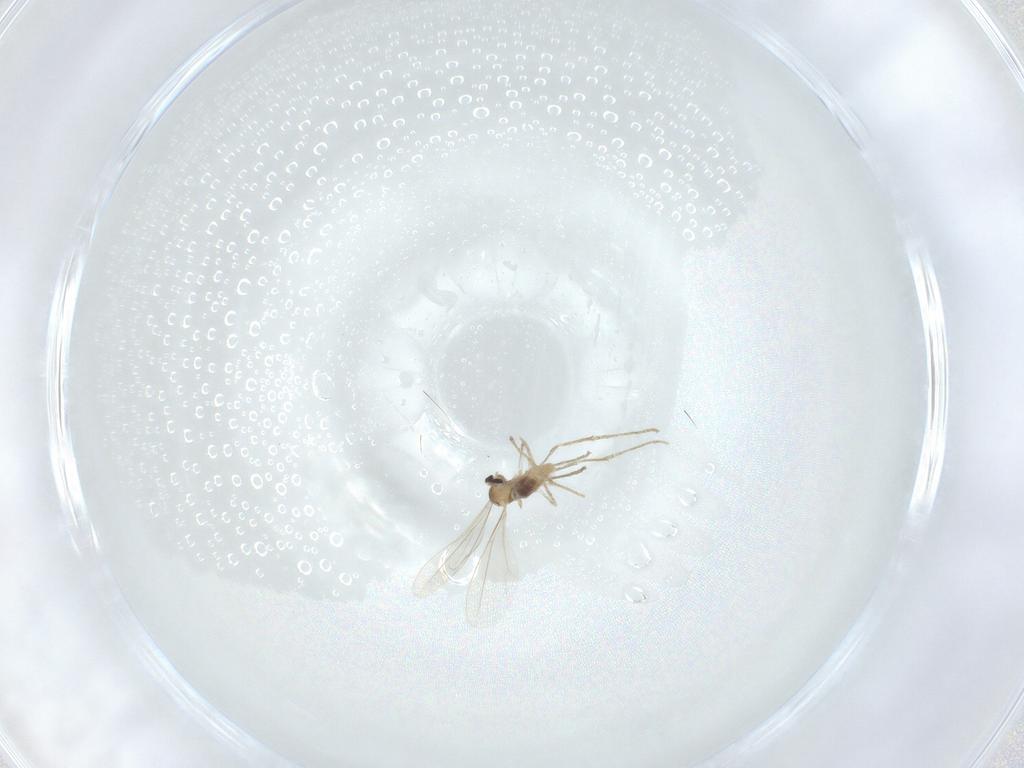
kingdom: Animalia
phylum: Arthropoda
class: Insecta
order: Diptera
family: Cecidomyiidae
